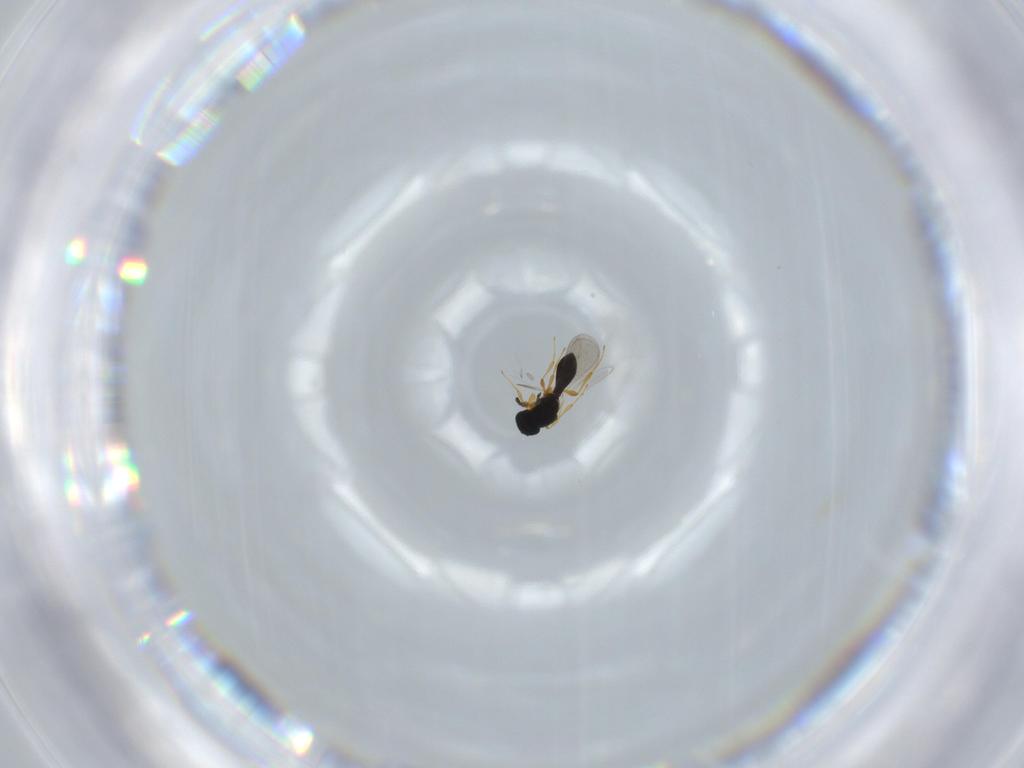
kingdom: Animalia
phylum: Arthropoda
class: Insecta
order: Hymenoptera
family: Platygastridae
